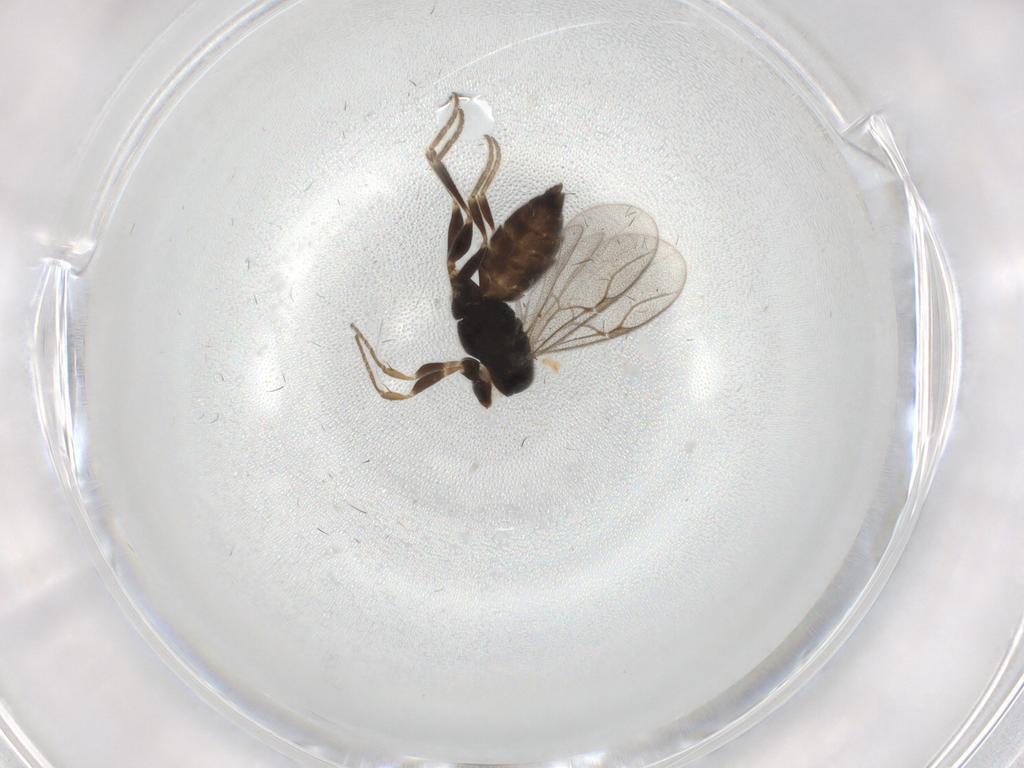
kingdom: Animalia
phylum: Arthropoda
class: Insecta
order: Hymenoptera
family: Dryinidae
